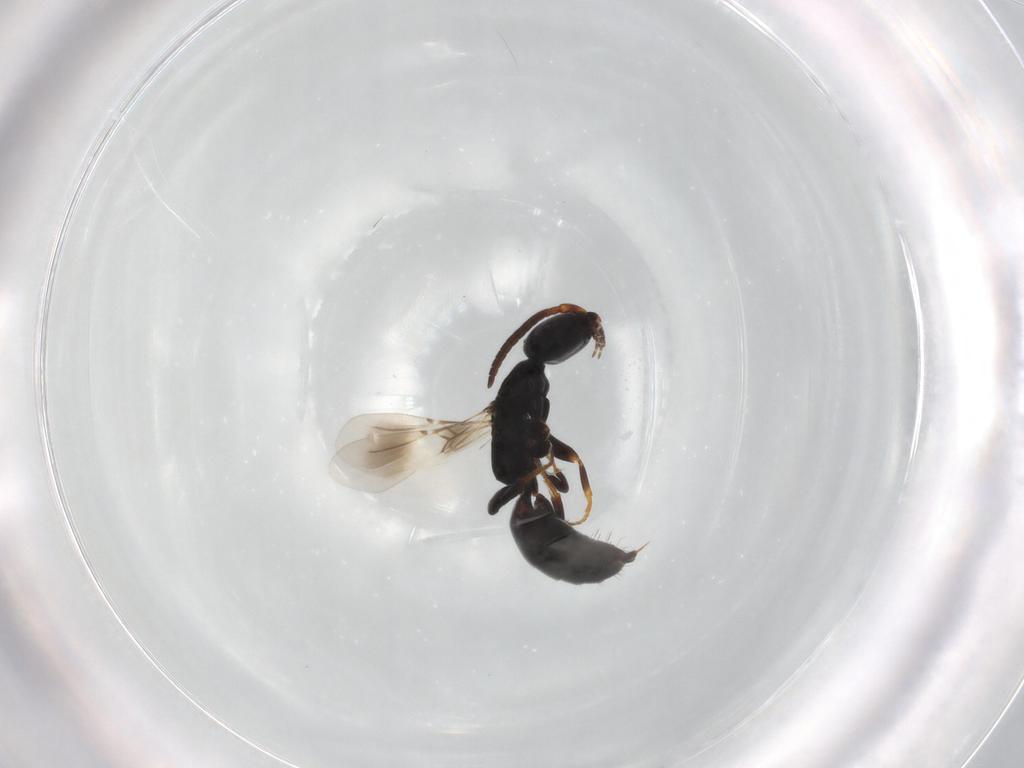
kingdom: Animalia
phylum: Arthropoda
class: Insecta
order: Hymenoptera
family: Bethylidae
